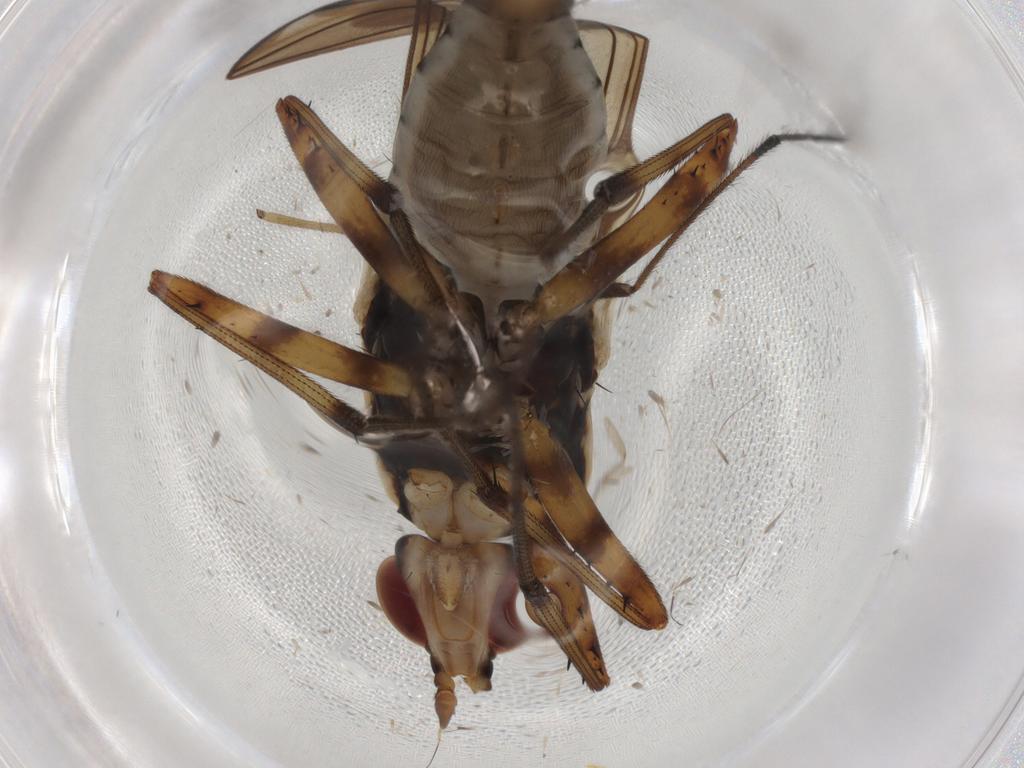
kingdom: Animalia
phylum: Arthropoda
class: Insecta
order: Diptera
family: Neriidae
